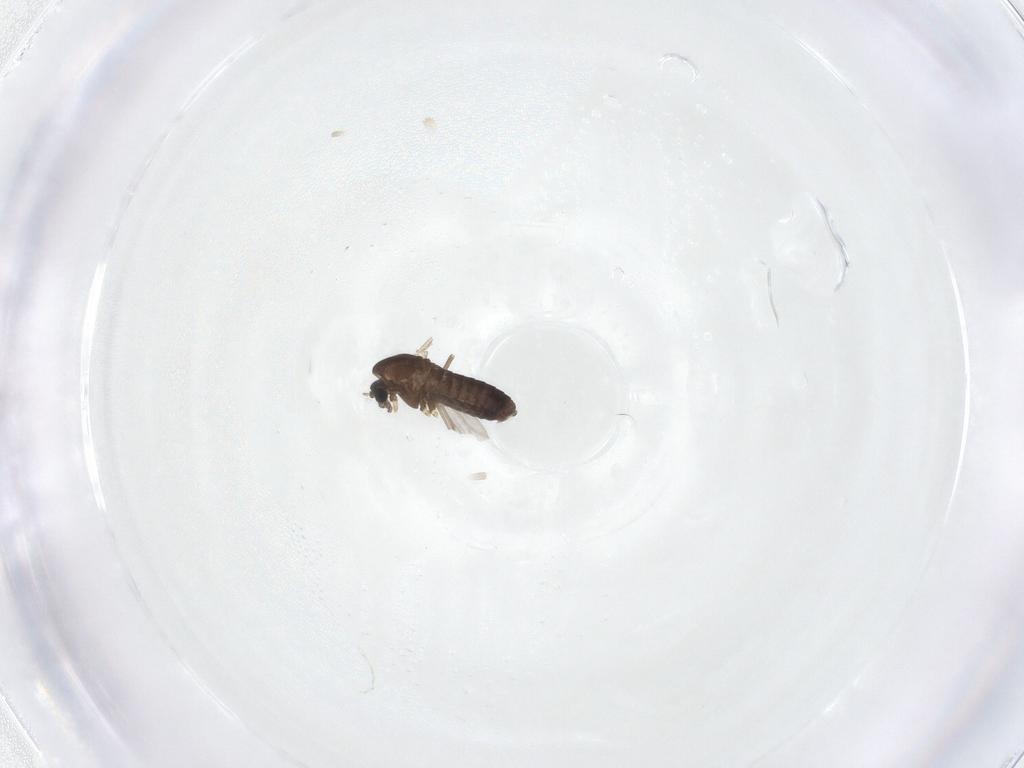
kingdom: Animalia
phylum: Arthropoda
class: Insecta
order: Diptera
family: Chironomidae
